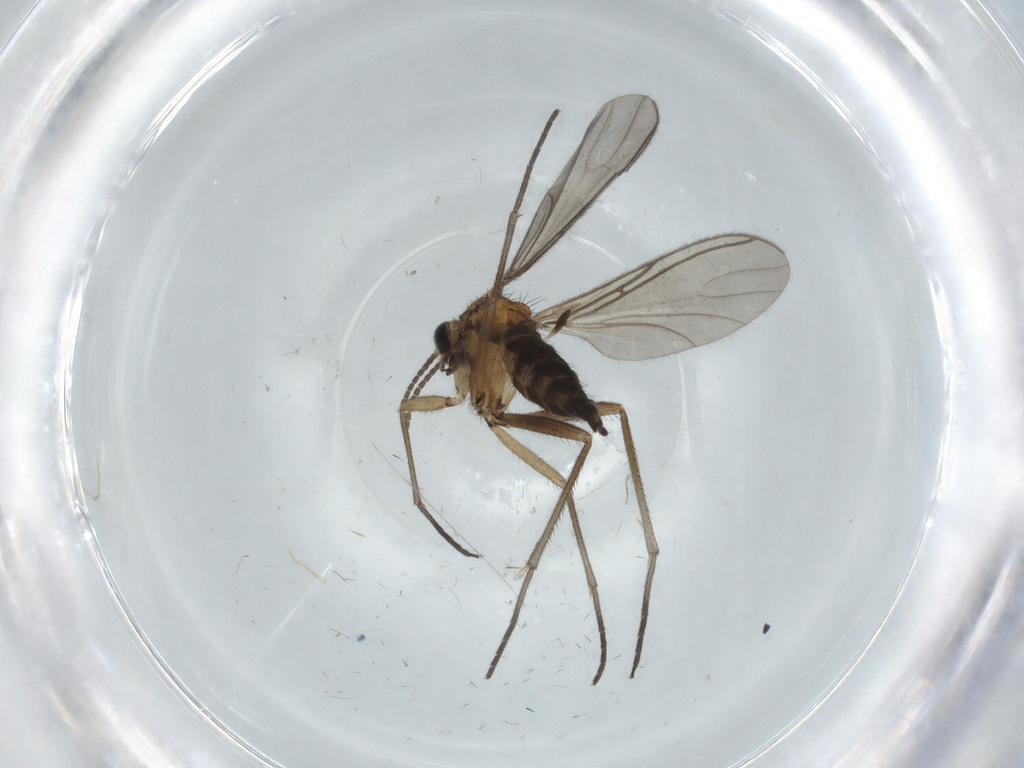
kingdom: Animalia
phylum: Arthropoda
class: Insecta
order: Diptera
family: Sciaridae
